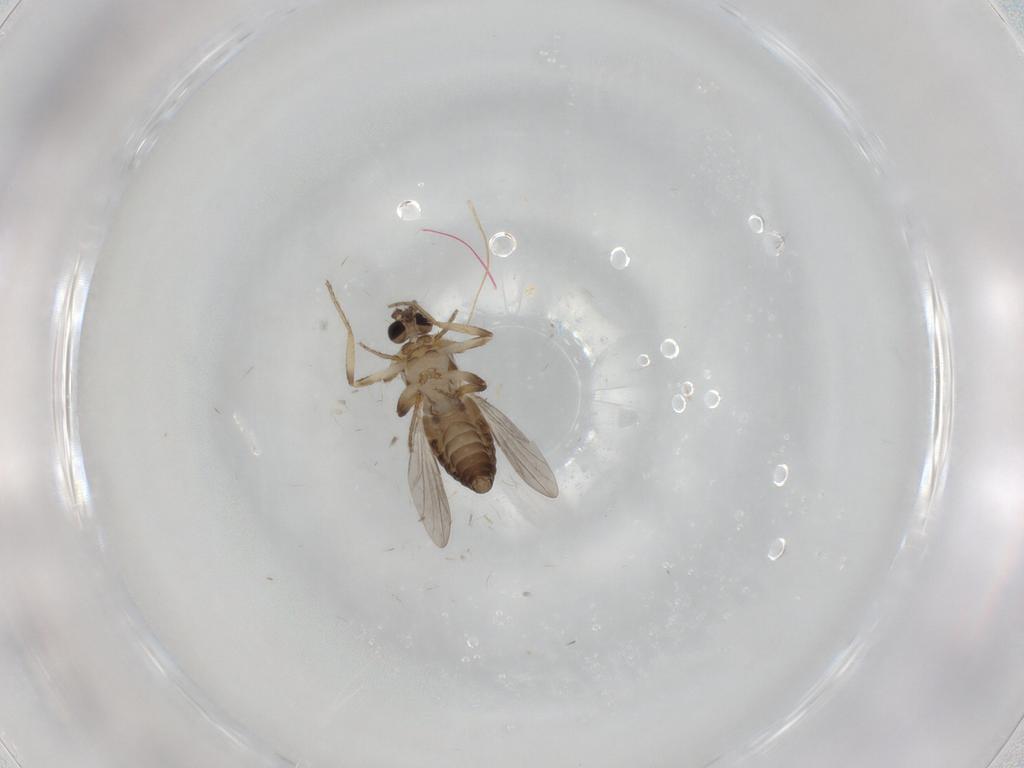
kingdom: Animalia
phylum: Arthropoda
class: Insecta
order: Diptera
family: Ceratopogonidae
